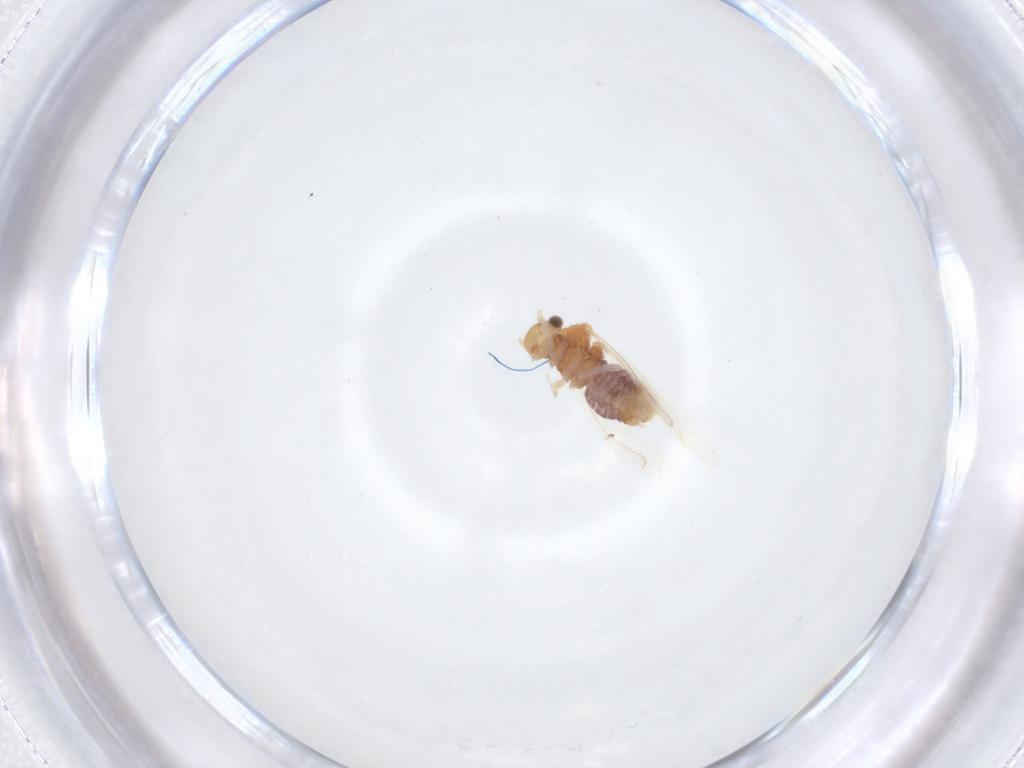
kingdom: Animalia
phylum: Arthropoda
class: Insecta
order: Psocodea
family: Lachesillidae
